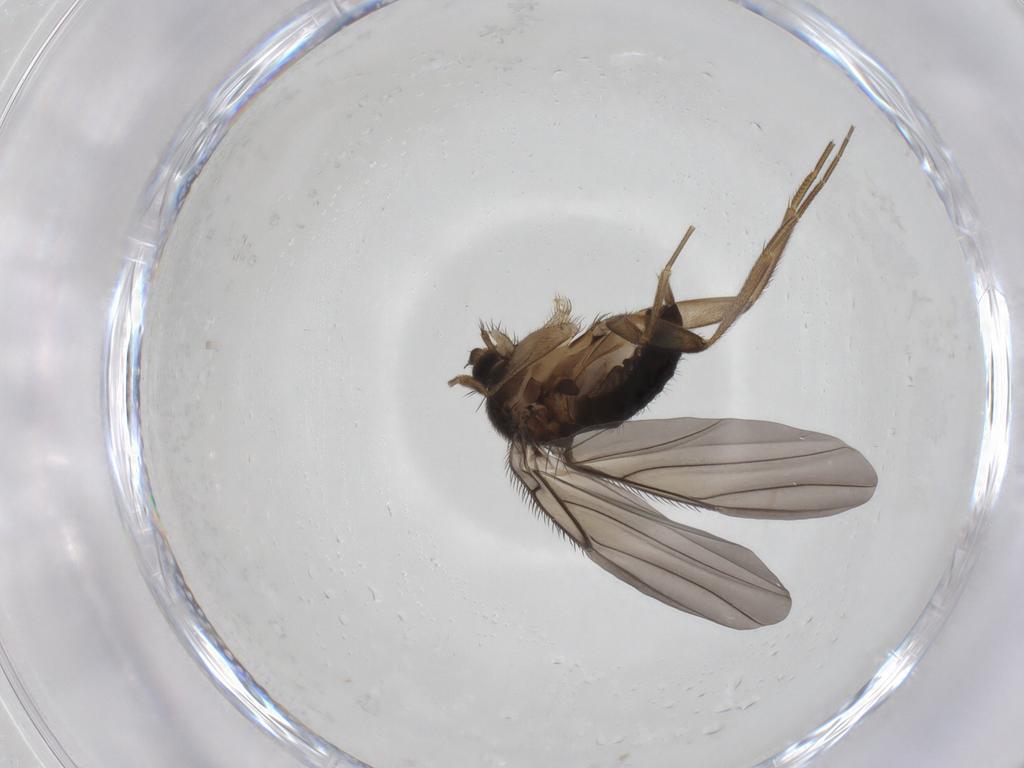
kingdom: Animalia
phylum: Arthropoda
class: Insecta
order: Diptera
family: Phoridae
